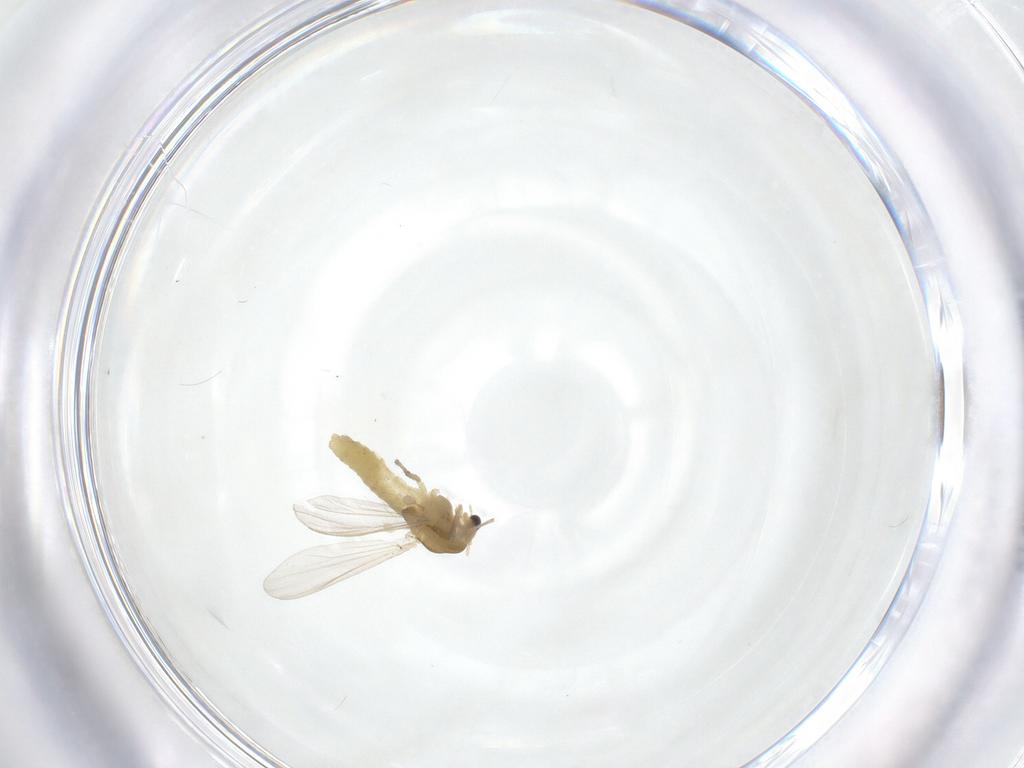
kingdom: Animalia
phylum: Arthropoda
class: Insecta
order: Diptera
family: Chironomidae
